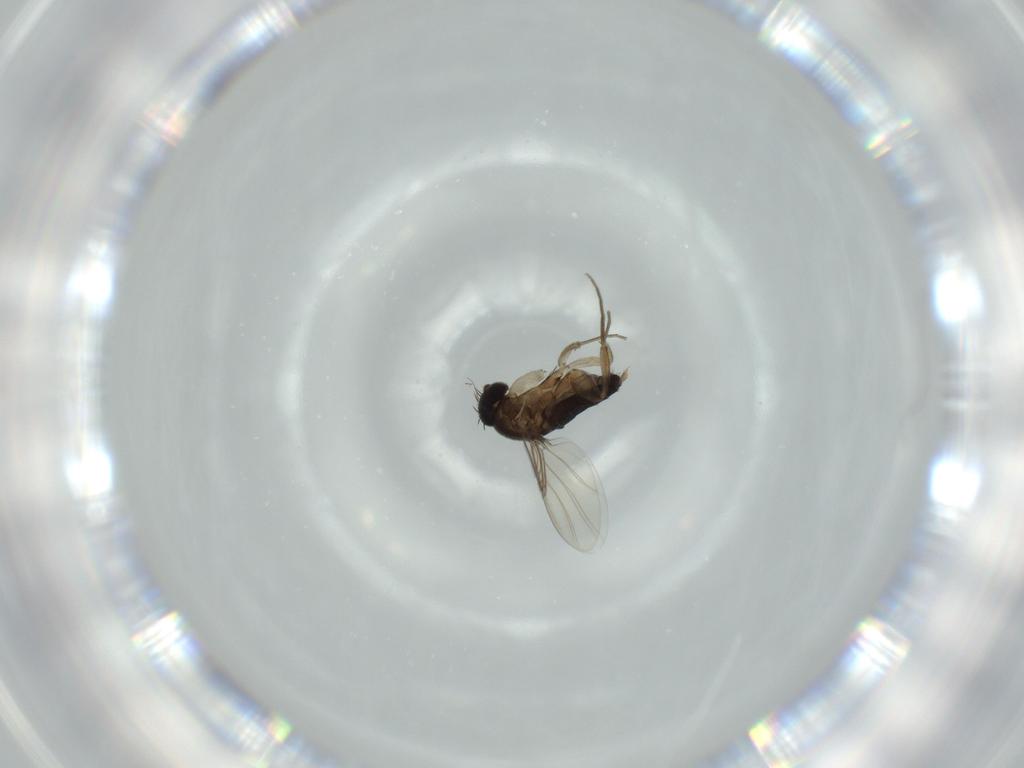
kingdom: Animalia
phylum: Arthropoda
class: Insecta
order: Diptera
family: Phoridae
